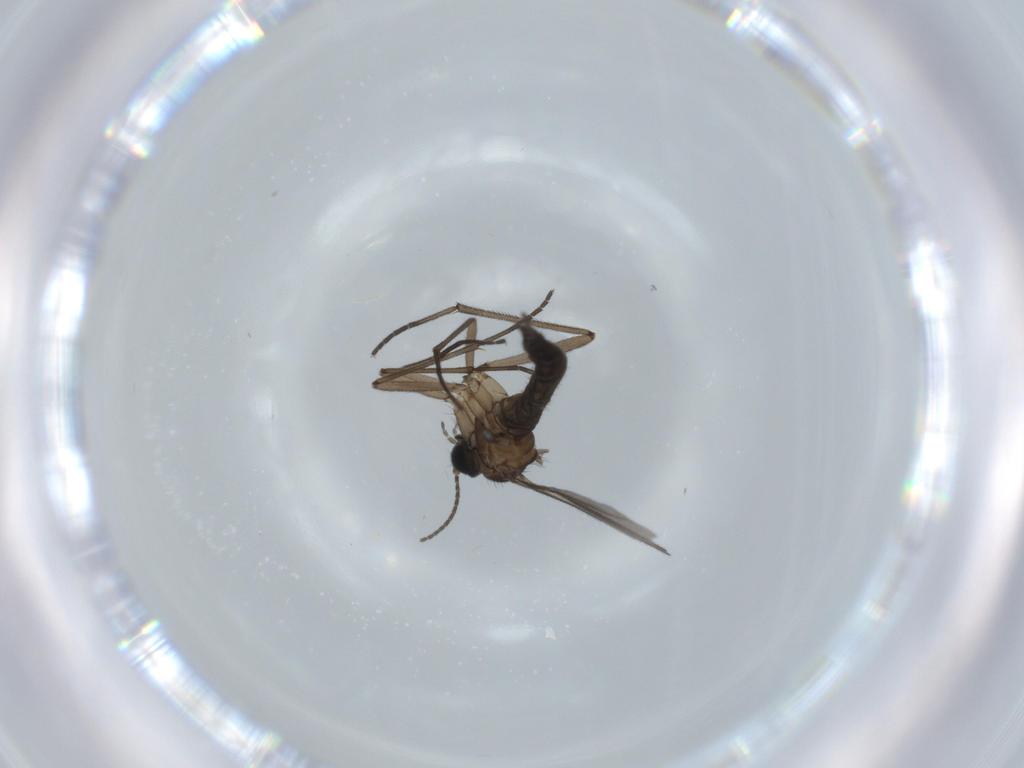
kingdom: Animalia
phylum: Arthropoda
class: Insecta
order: Diptera
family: Sciaridae
